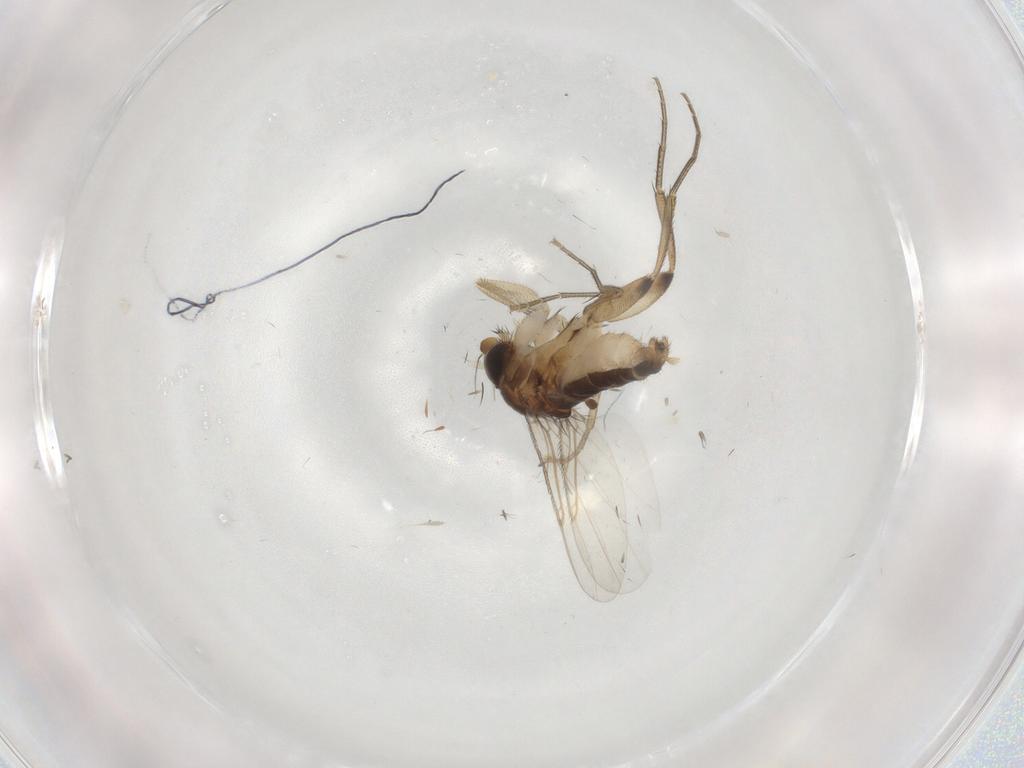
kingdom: Animalia
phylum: Arthropoda
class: Insecta
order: Diptera
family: Phoridae
